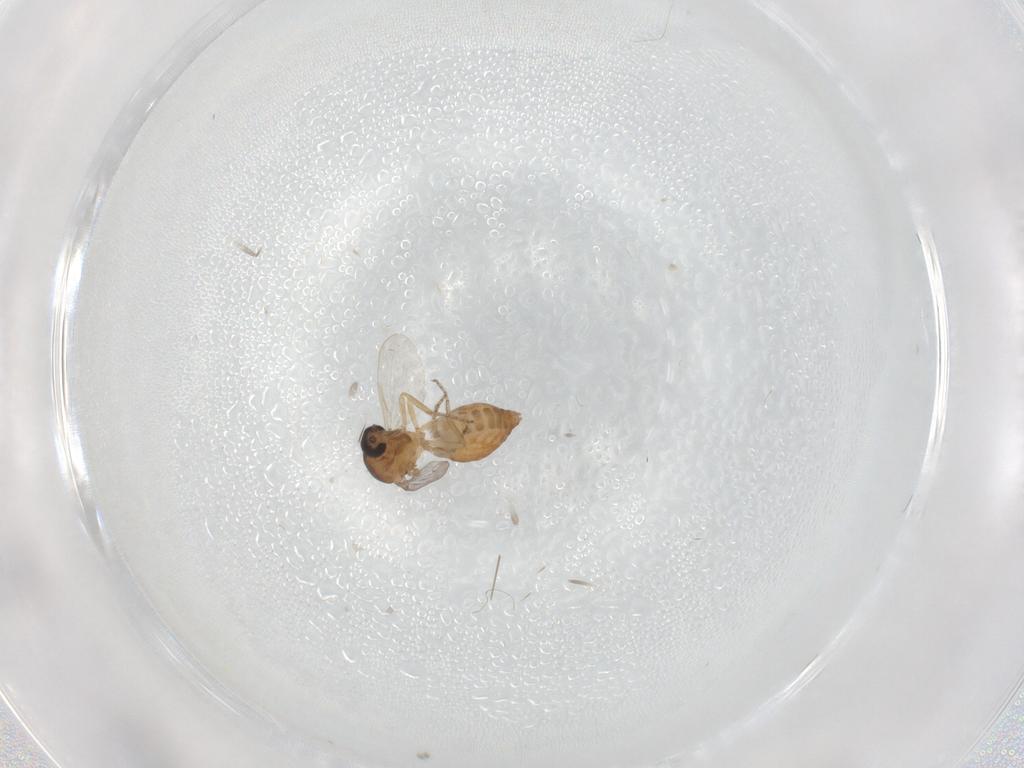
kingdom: Animalia
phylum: Arthropoda
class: Insecta
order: Diptera
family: Ceratopogonidae
